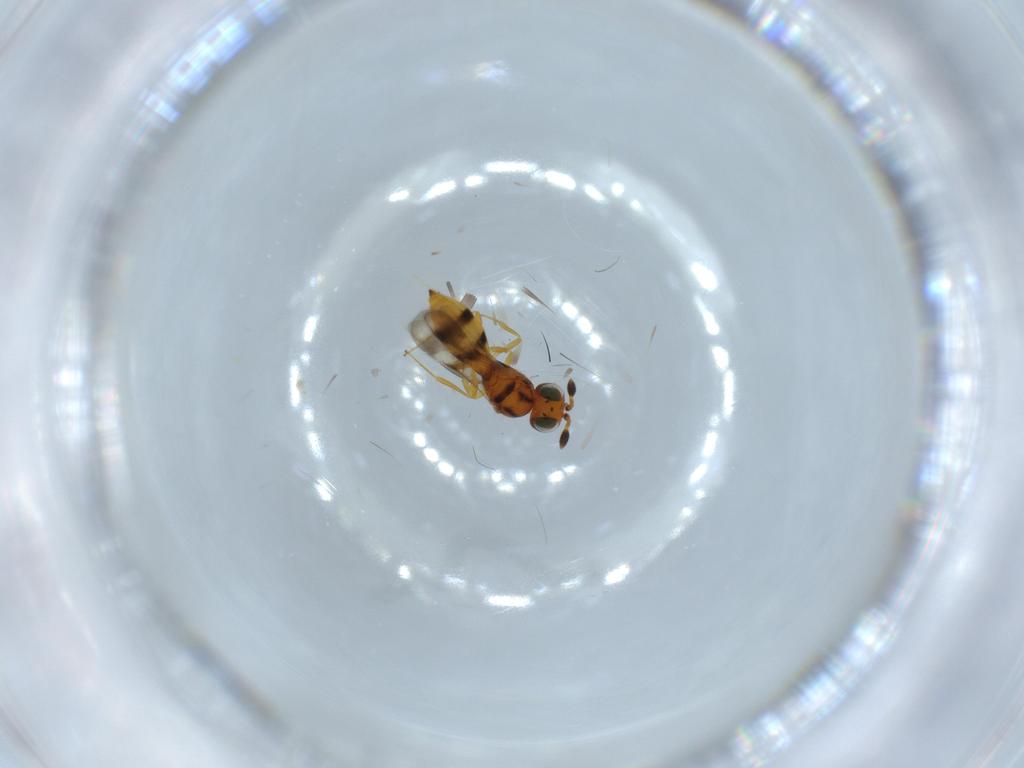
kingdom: Animalia
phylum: Arthropoda
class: Insecta
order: Hymenoptera
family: Scelionidae
